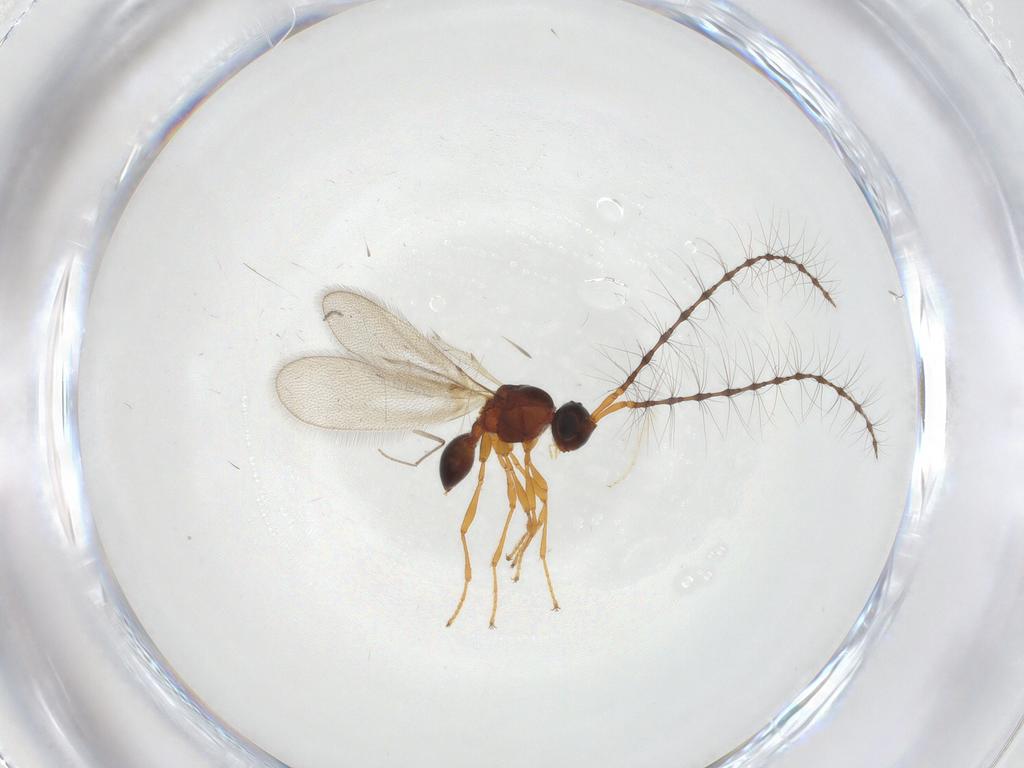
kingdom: Animalia
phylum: Arthropoda
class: Insecta
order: Hymenoptera
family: Diapriidae
